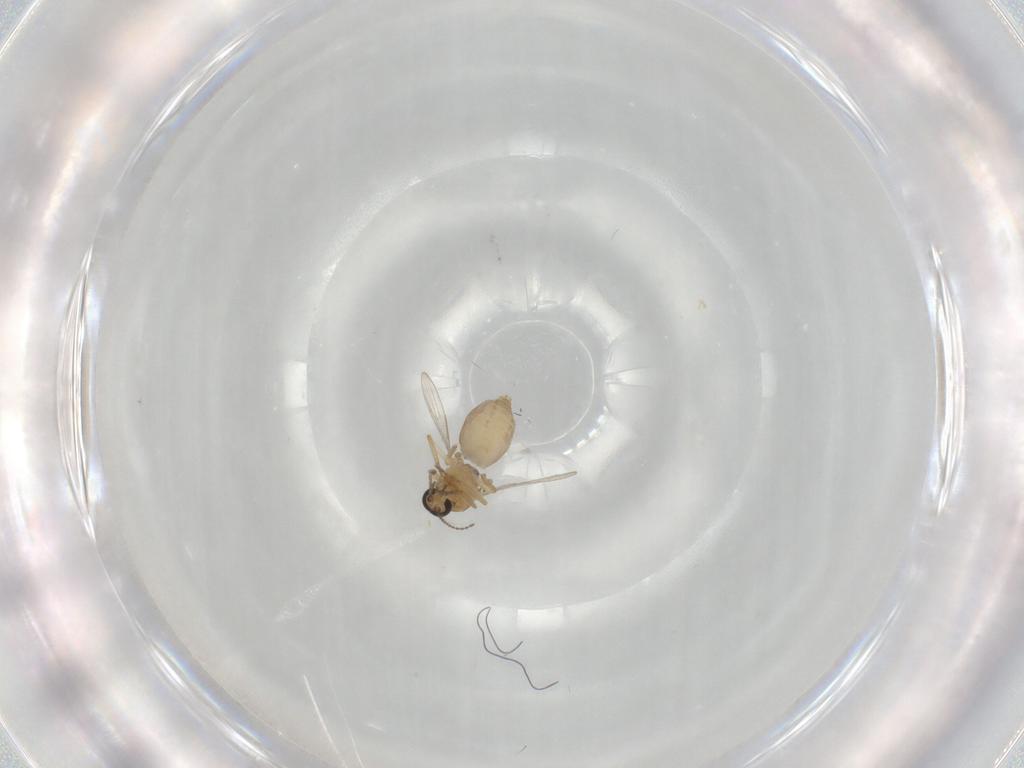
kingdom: Animalia
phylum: Arthropoda
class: Insecta
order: Diptera
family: Ceratopogonidae
